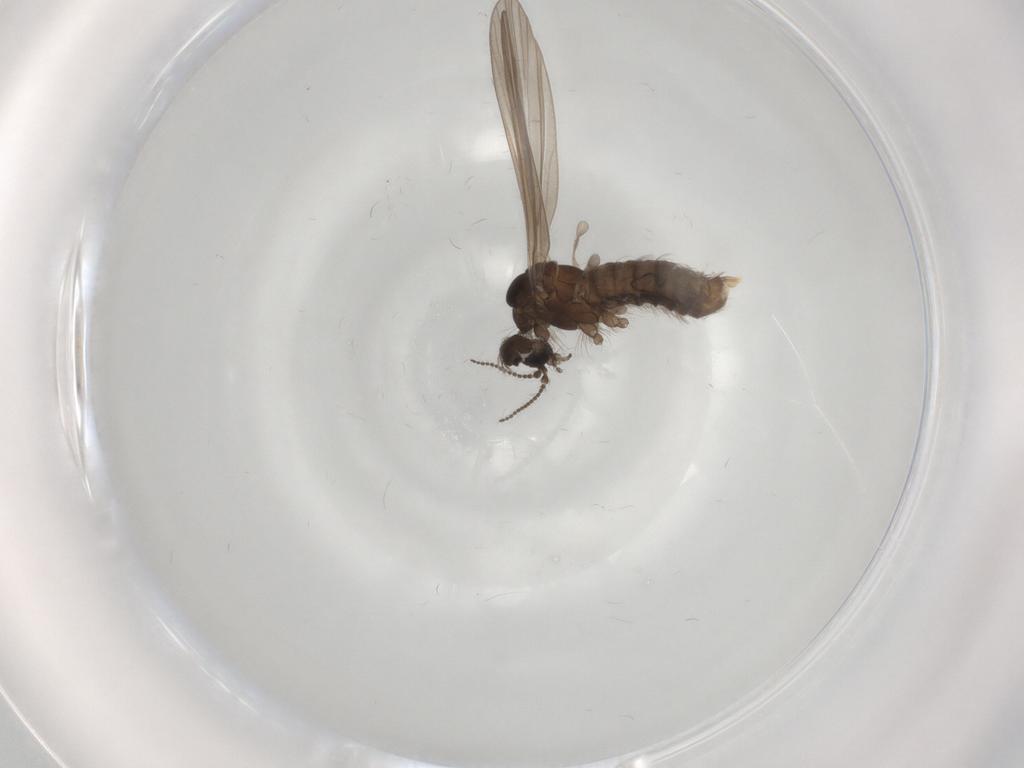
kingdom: Animalia
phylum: Arthropoda
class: Insecta
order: Diptera
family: Limoniidae
